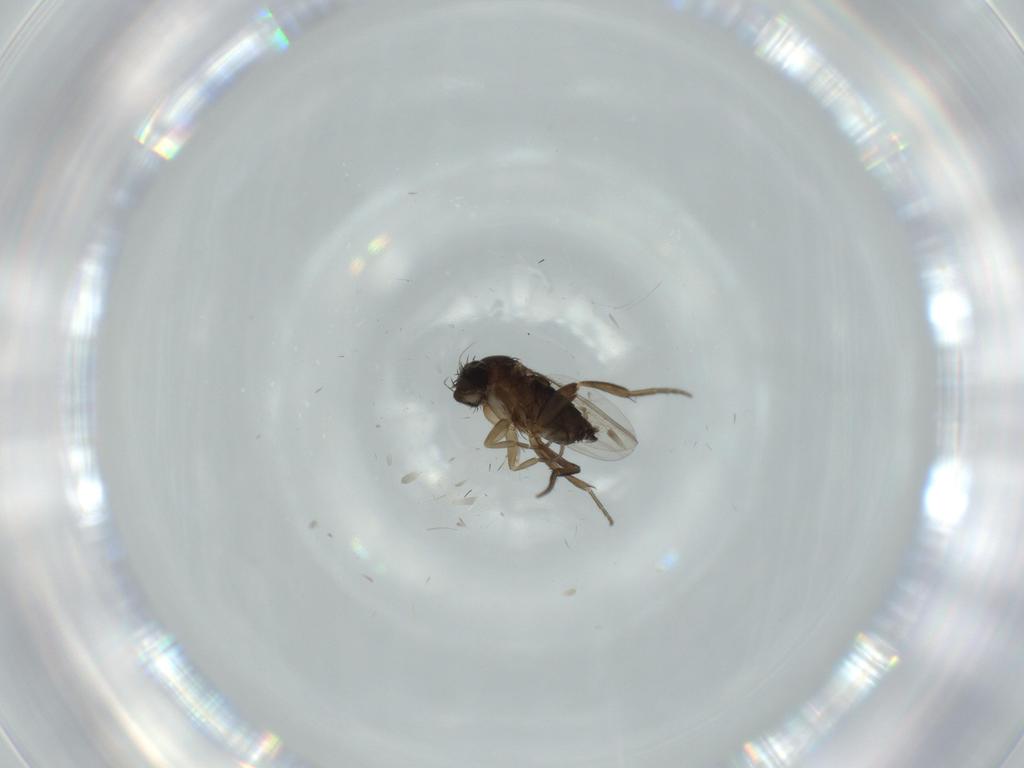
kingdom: Animalia
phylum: Arthropoda
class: Insecta
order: Diptera
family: Phoridae
